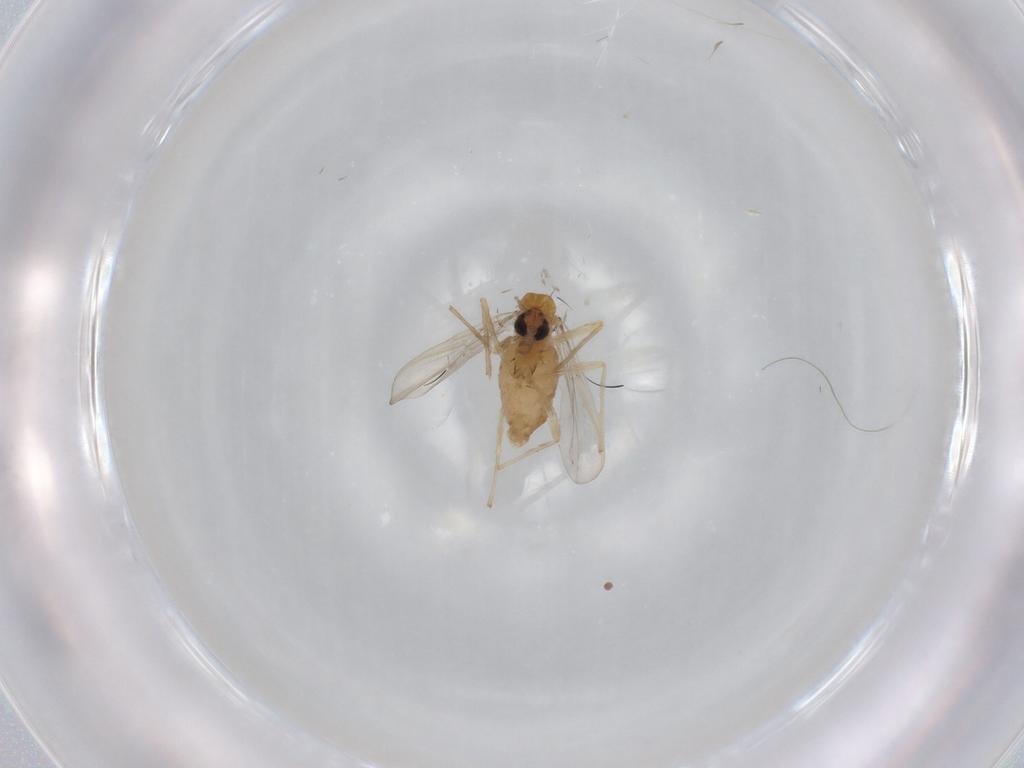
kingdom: Animalia
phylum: Arthropoda
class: Insecta
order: Diptera
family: Chironomidae
